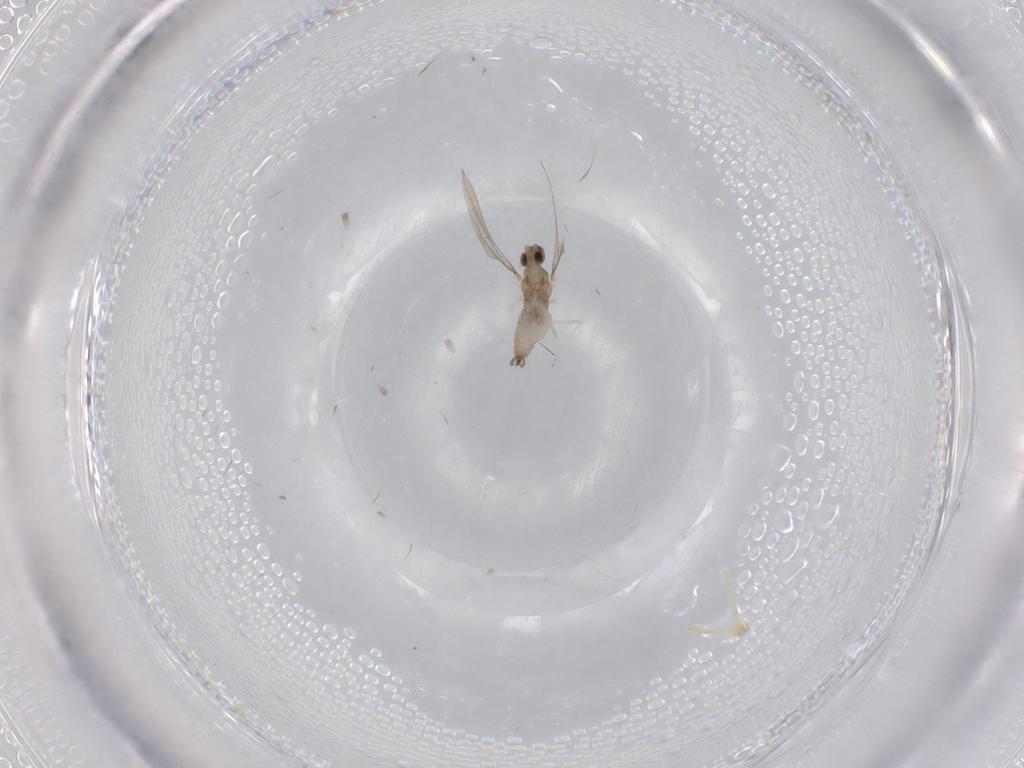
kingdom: Animalia
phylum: Arthropoda
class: Insecta
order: Diptera
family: Cecidomyiidae
